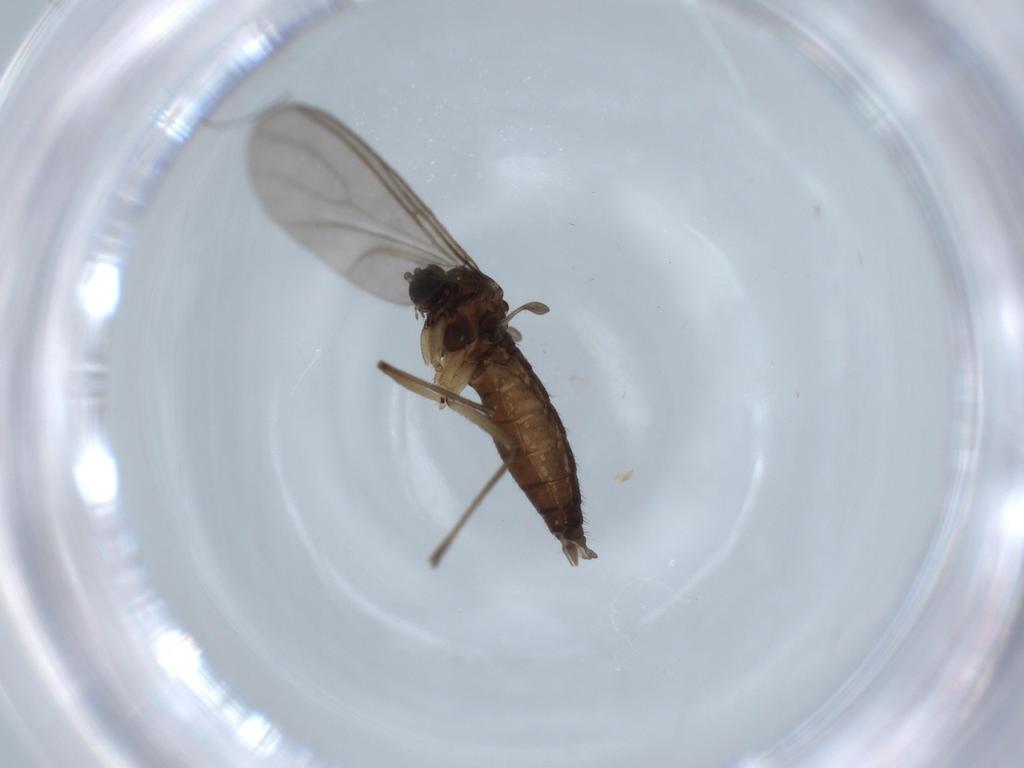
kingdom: Animalia
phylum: Arthropoda
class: Insecta
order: Diptera
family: Sciaridae
